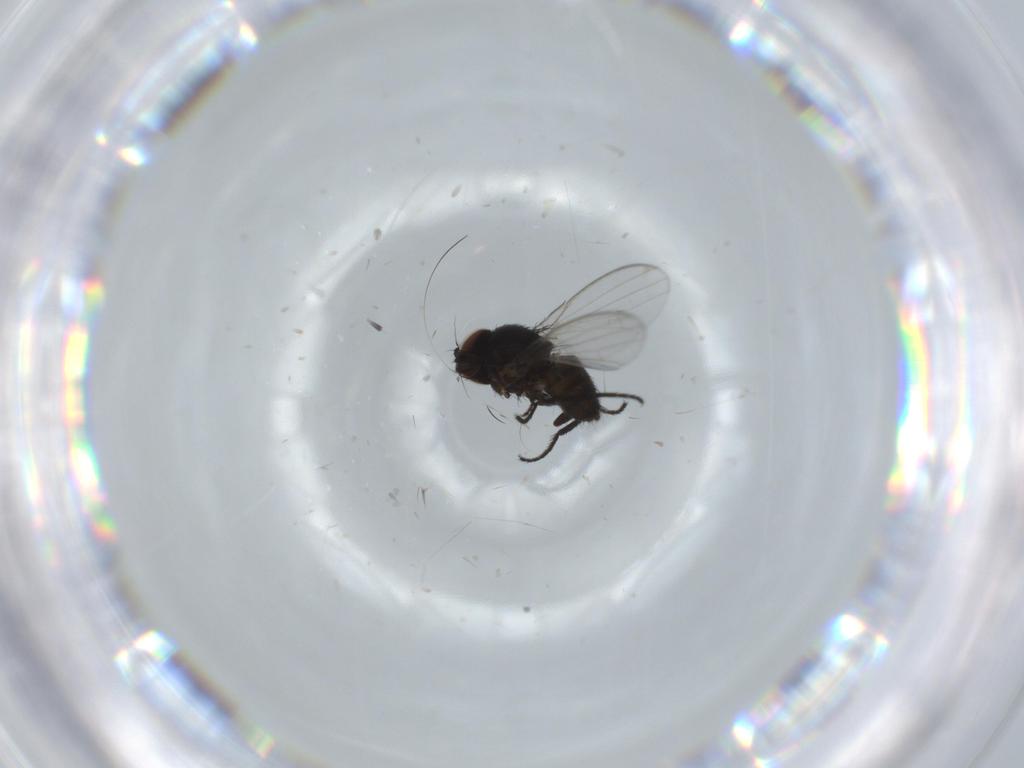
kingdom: Animalia
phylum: Arthropoda
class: Insecta
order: Diptera
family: Milichiidae
